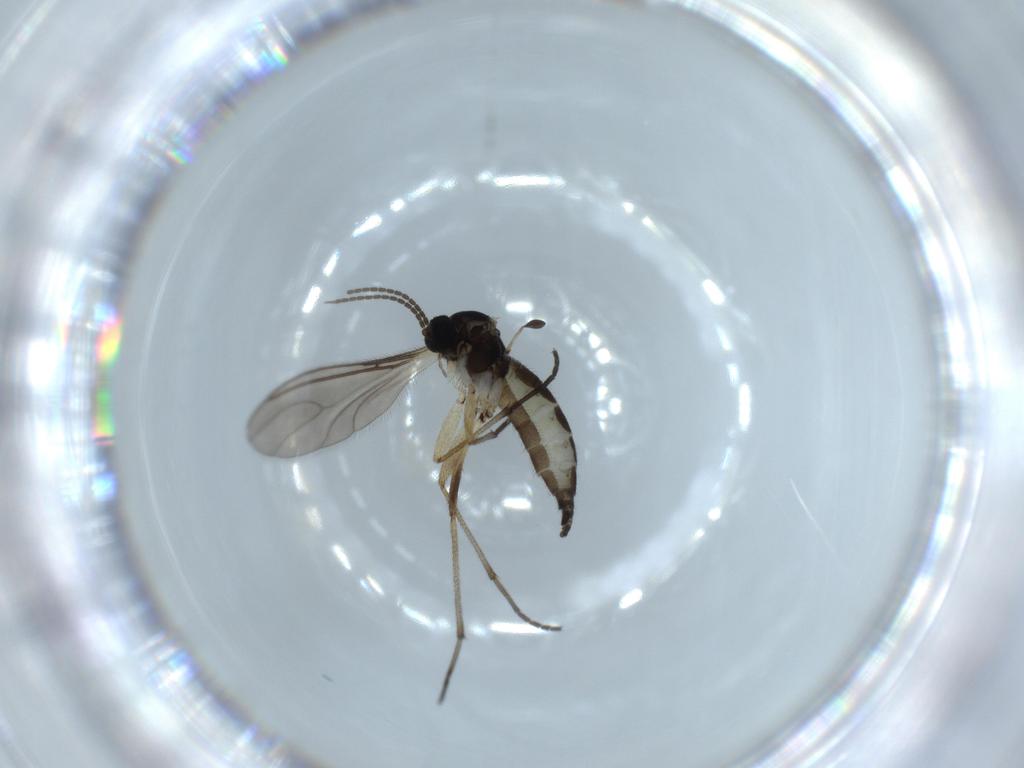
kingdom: Animalia
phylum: Arthropoda
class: Insecta
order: Diptera
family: Sciaridae
